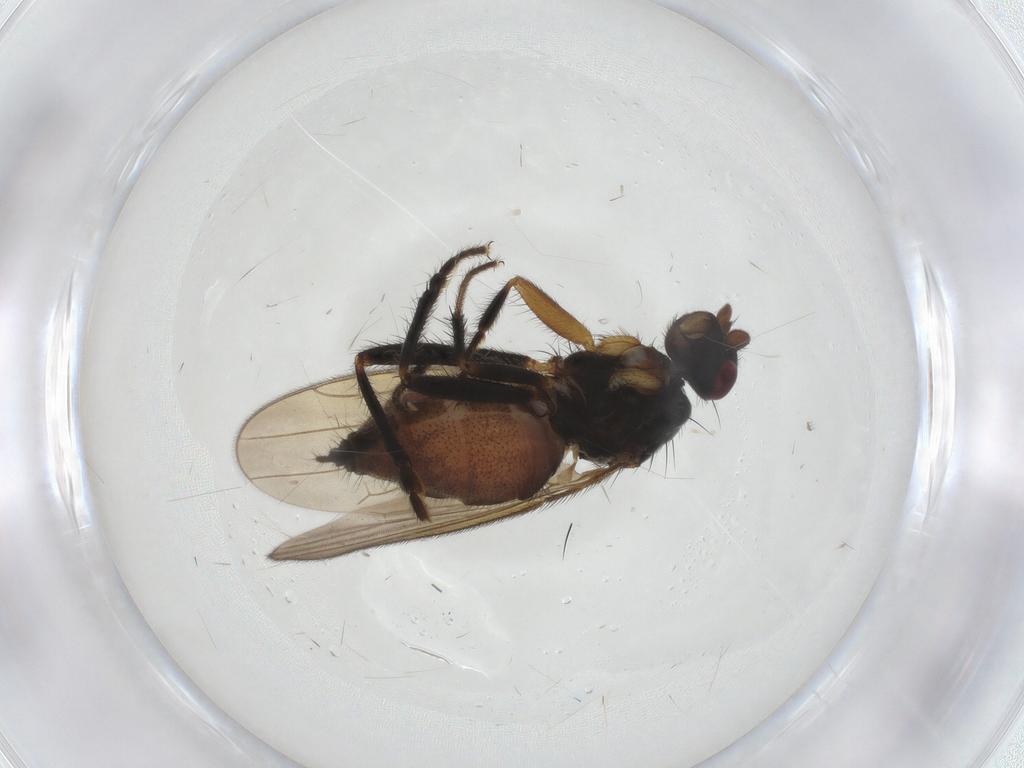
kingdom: Animalia
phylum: Arthropoda
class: Insecta
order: Diptera
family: Sphaeroceridae
